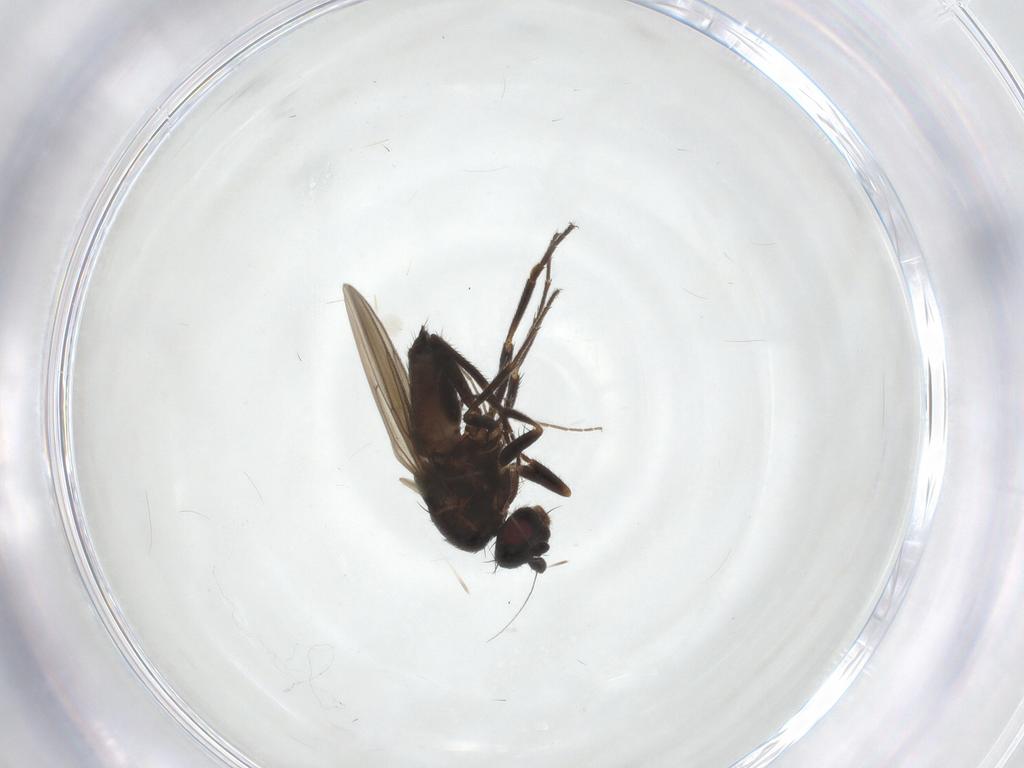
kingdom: Animalia
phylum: Arthropoda
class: Insecta
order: Diptera
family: Sphaeroceridae
